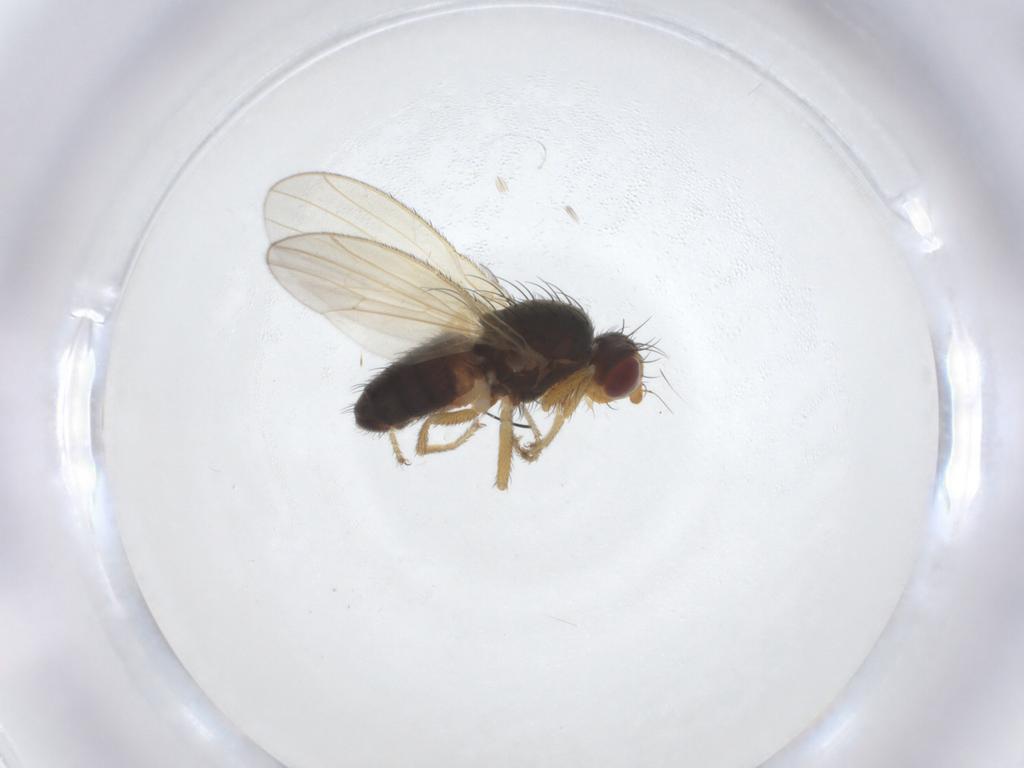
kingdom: Animalia
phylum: Arthropoda
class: Insecta
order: Diptera
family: Heleomyzidae
